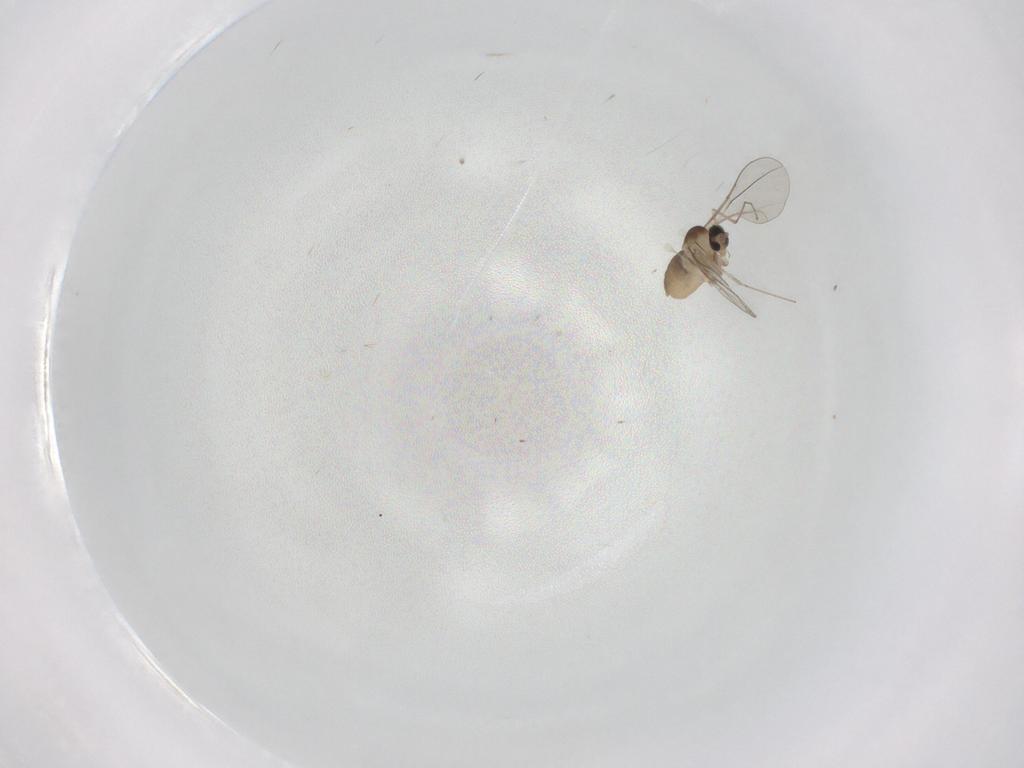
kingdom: Animalia
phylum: Arthropoda
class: Insecta
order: Diptera
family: Cecidomyiidae
